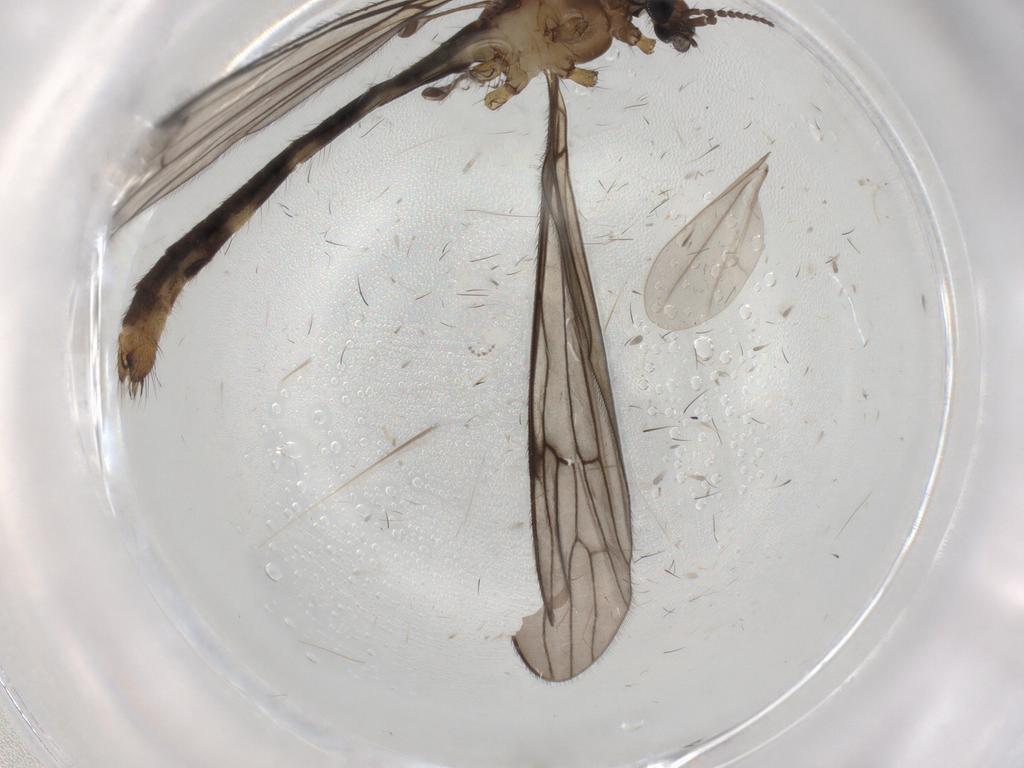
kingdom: Animalia
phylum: Arthropoda
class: Insecta
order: Diptera
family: Limoniidae
